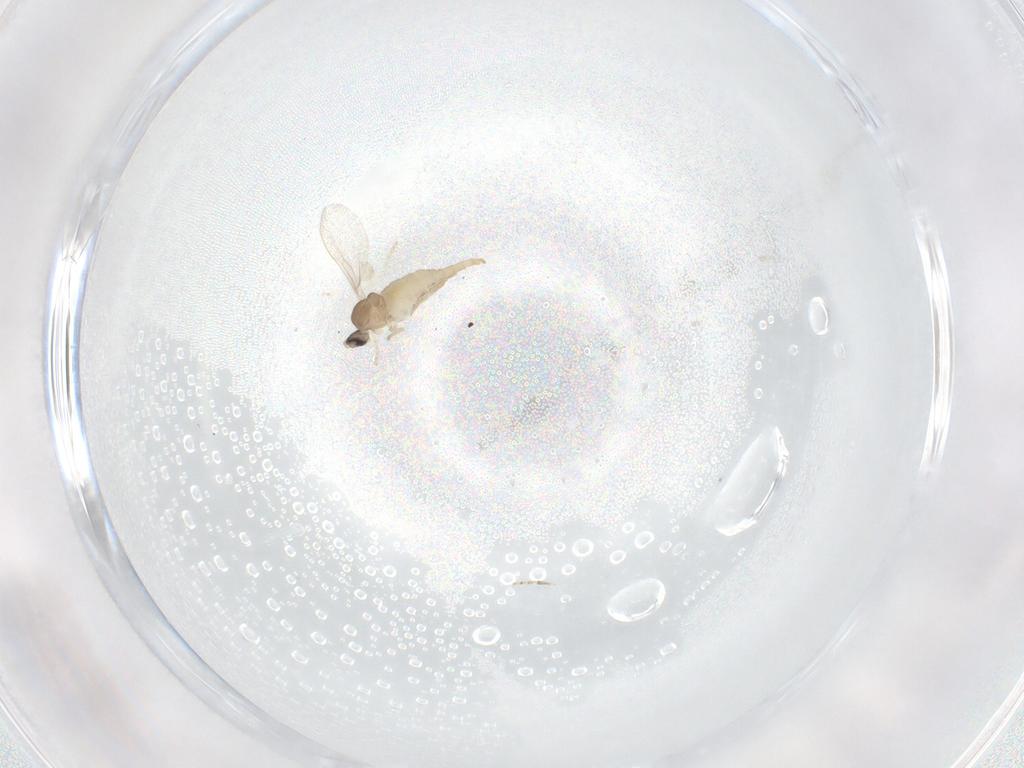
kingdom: Animalia
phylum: Arthropoda
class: Insecta
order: Diptera
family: Cecidomyiidae
